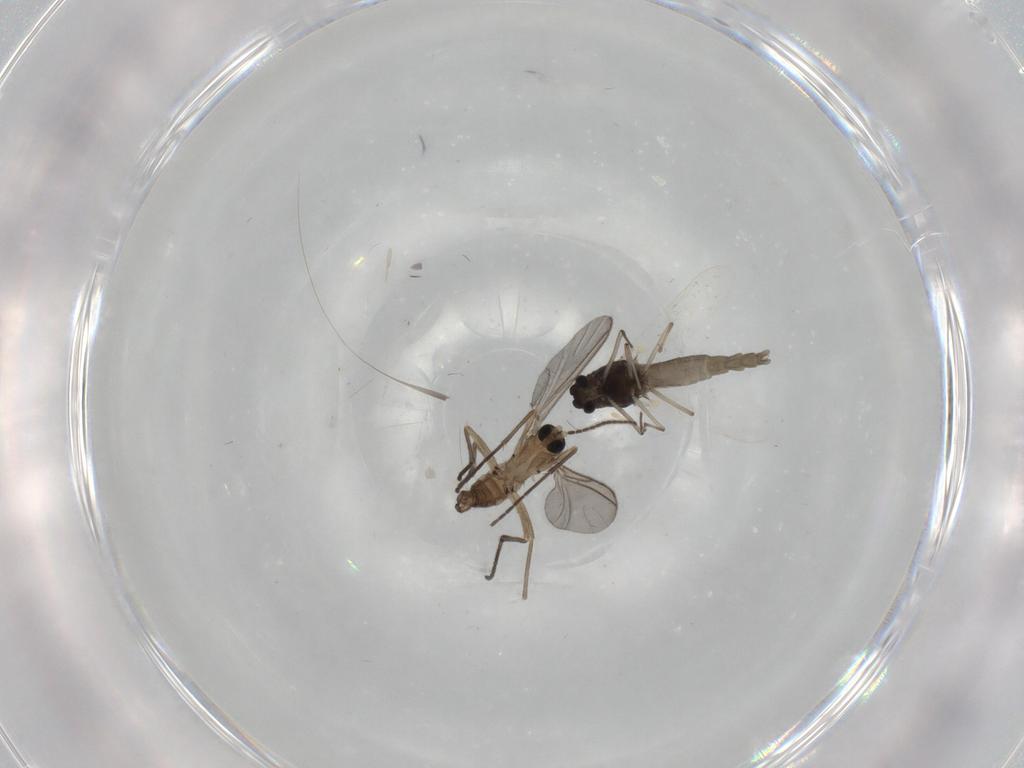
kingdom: Animalia
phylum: Arthropoda
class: Insecta
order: Diptera
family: Chironomidae
